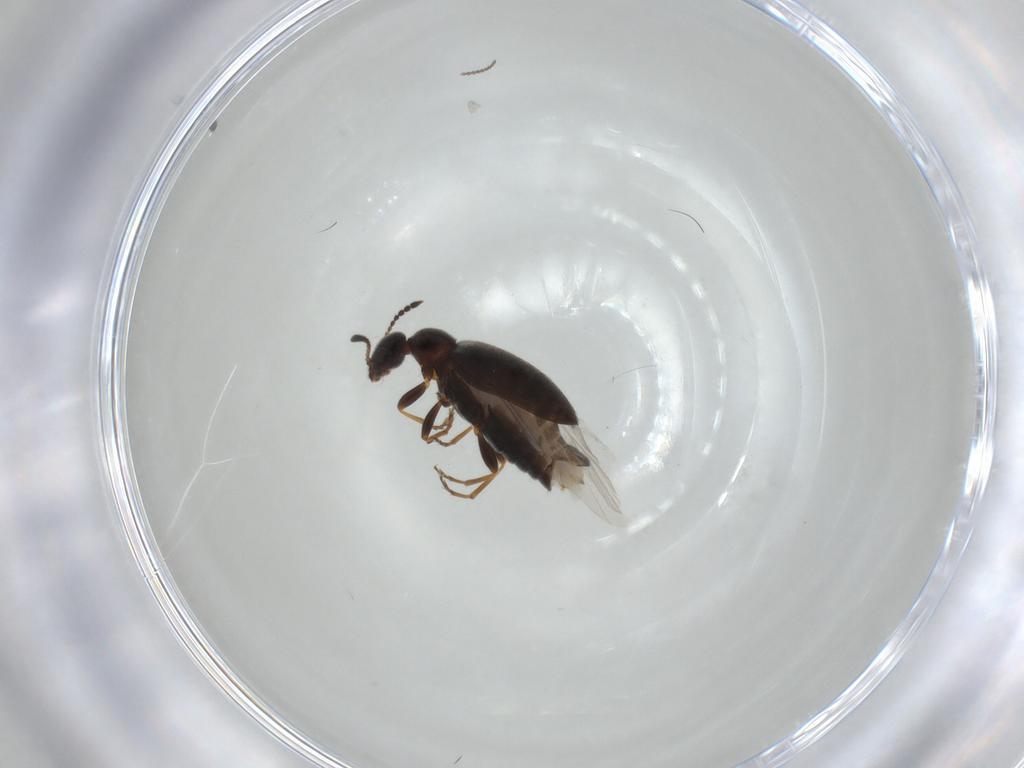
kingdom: Animalia
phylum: Arthropoda
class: Insecta
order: Coleoptera
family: Anthicidae
